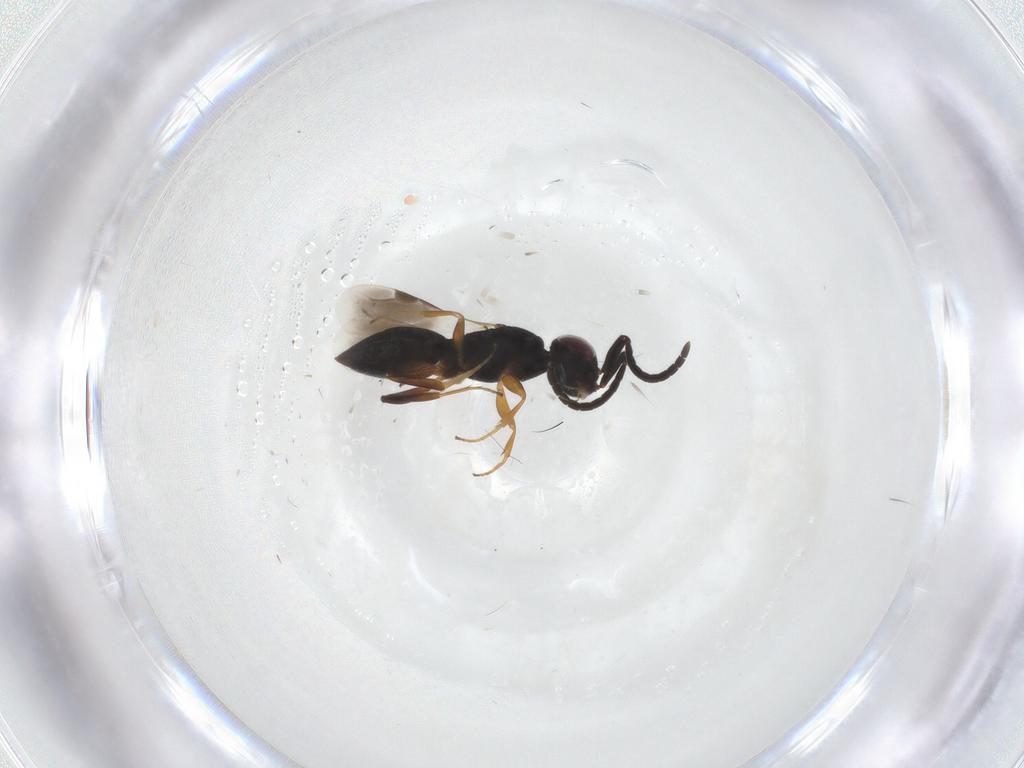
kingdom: Animalia
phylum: Arthropoda
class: Insecta
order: Hymenoptera
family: Megaspilidae
